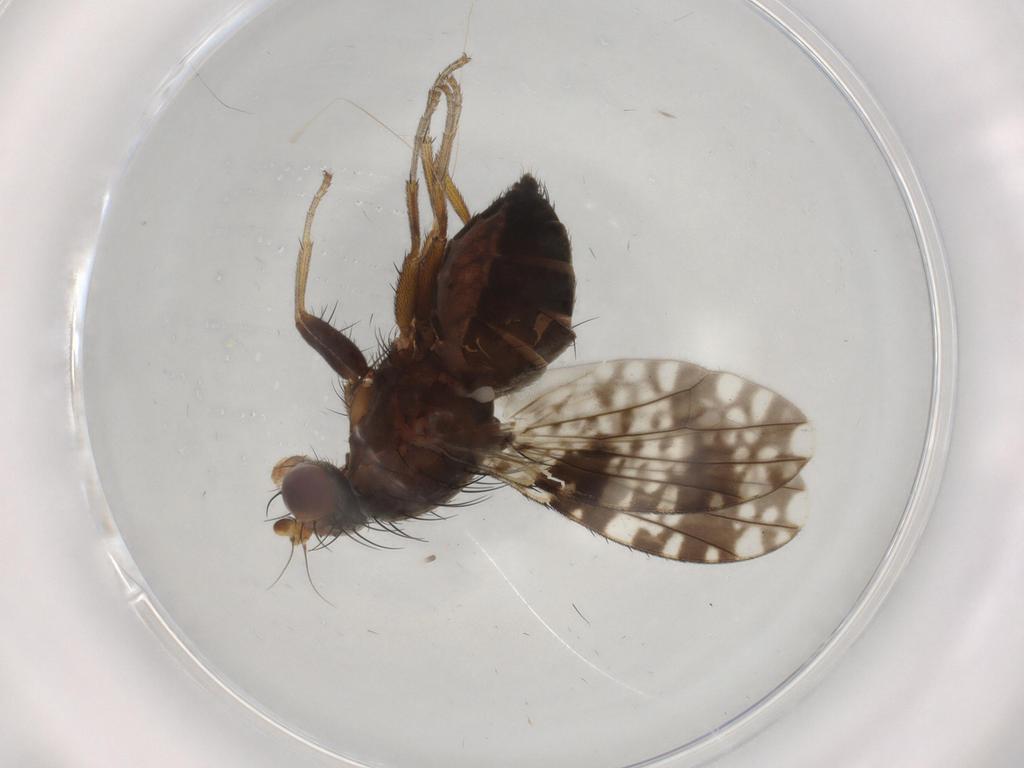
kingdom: Animalia
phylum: Arthropoda
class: Insecta
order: Diptera
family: Tephritidae
